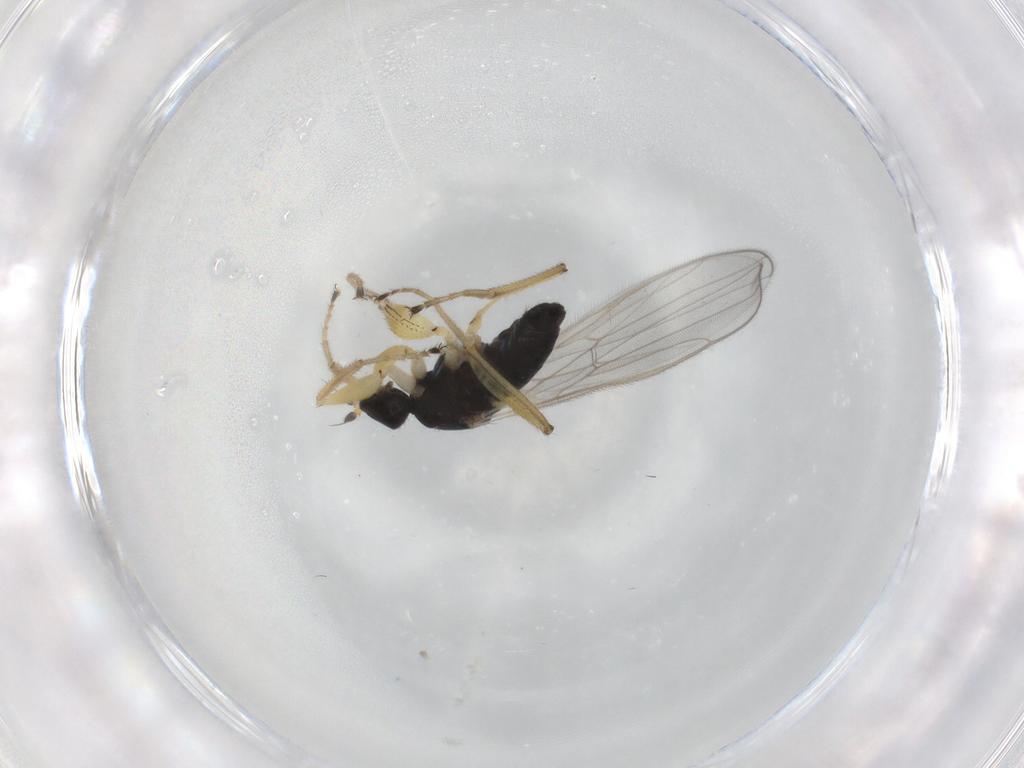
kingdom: Animalia
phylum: Arthropoda
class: Insecta
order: Diptera
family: Hybotidae
